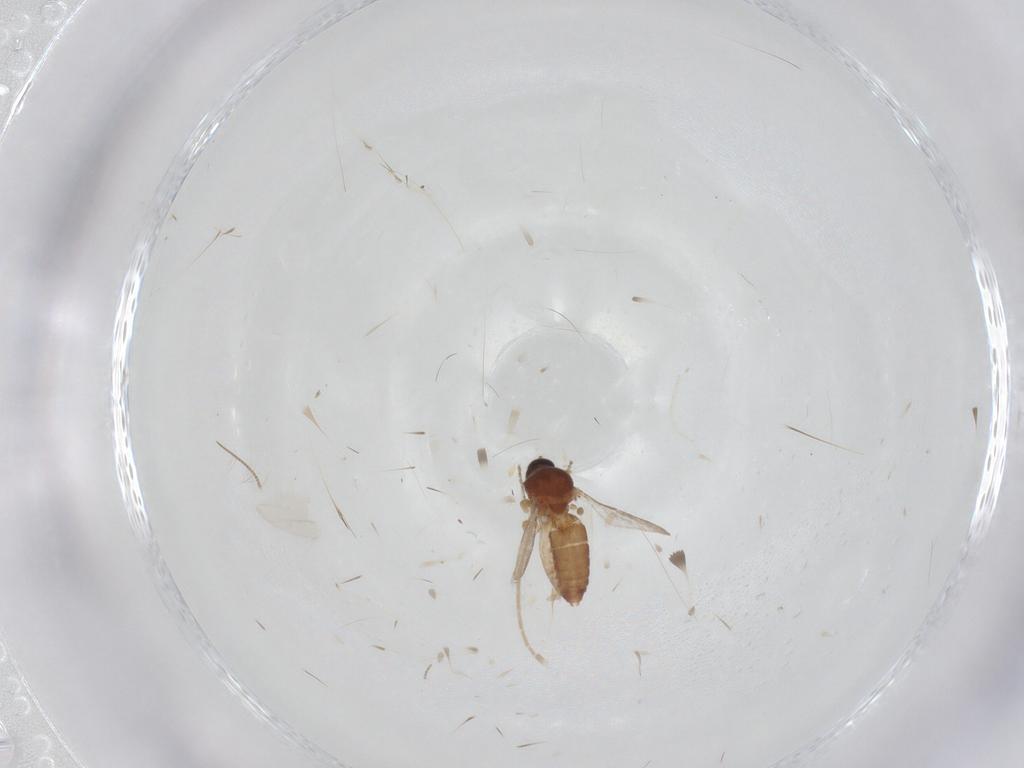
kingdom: Animalia
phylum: Arthropoda
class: Insecta
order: Diptera
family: Ceratopogonidae
